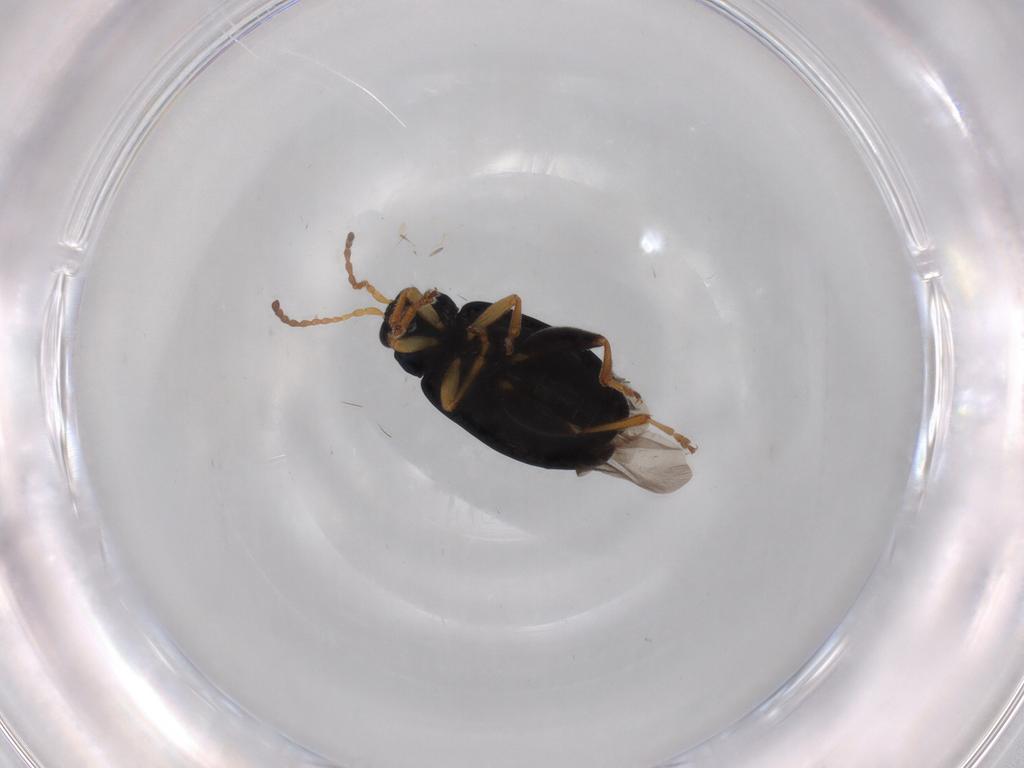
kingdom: Animalia
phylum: Arthropoda
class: Insecta
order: Coleoptera
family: Chrysomelidae
